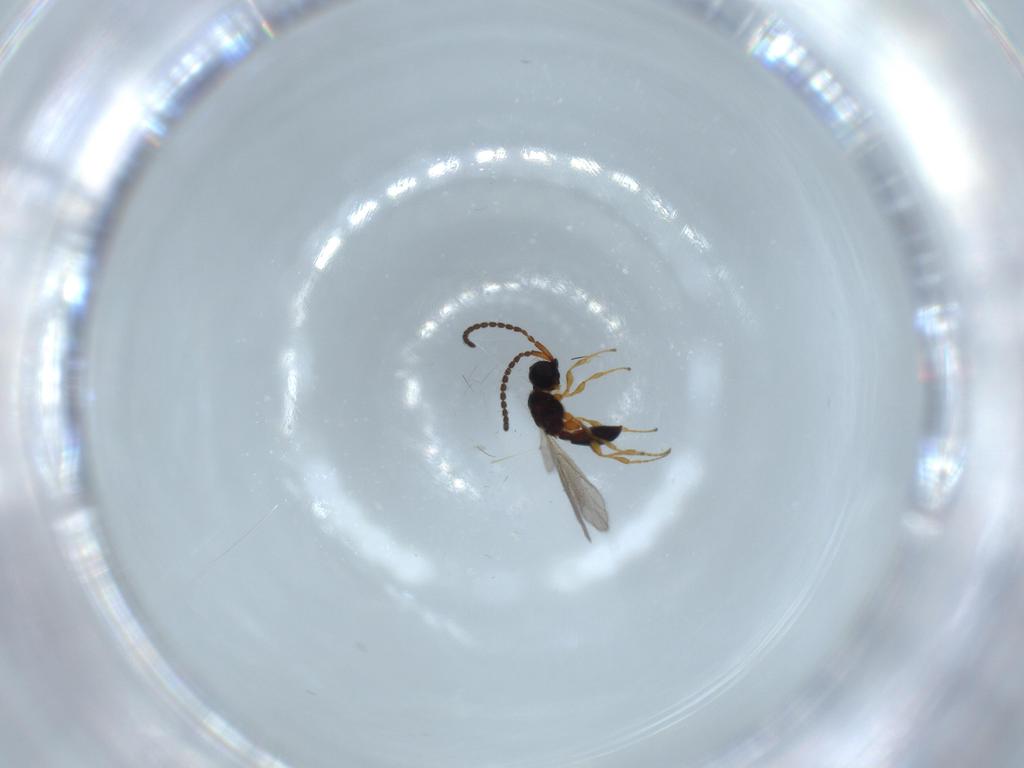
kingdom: Animalia
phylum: Arthropoda
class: Insecta
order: Hymenoptera
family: Diapriidae
